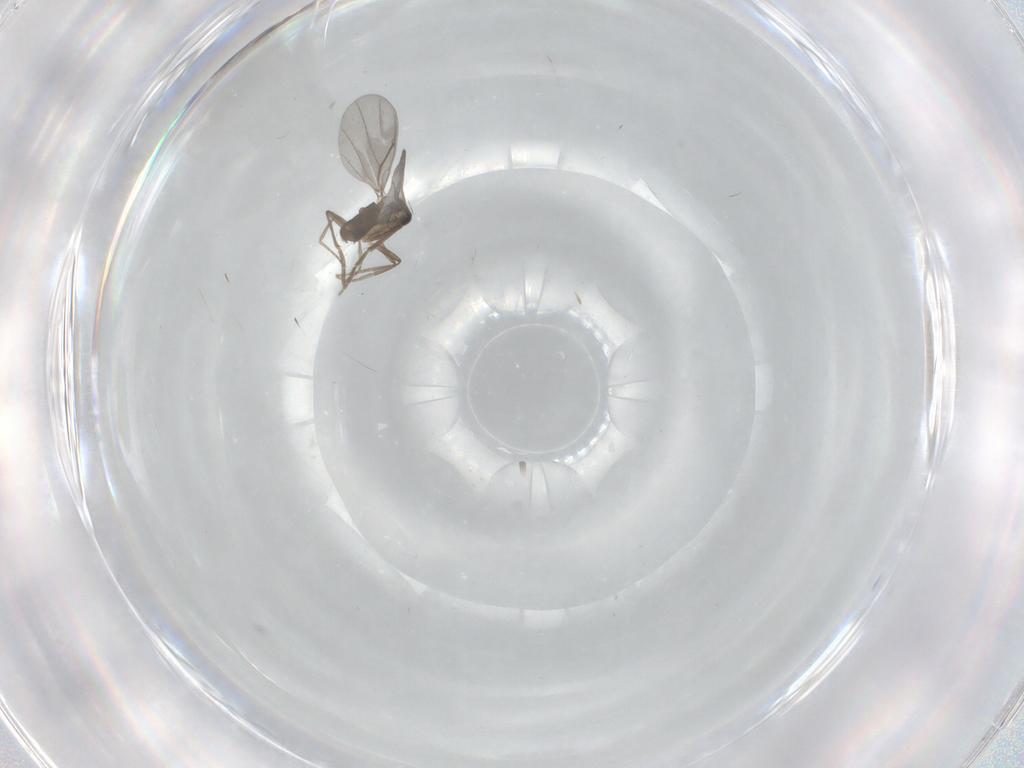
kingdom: Animalia
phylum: Arthropoda
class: Insecta
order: Diptera
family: Cecidomyiidae
